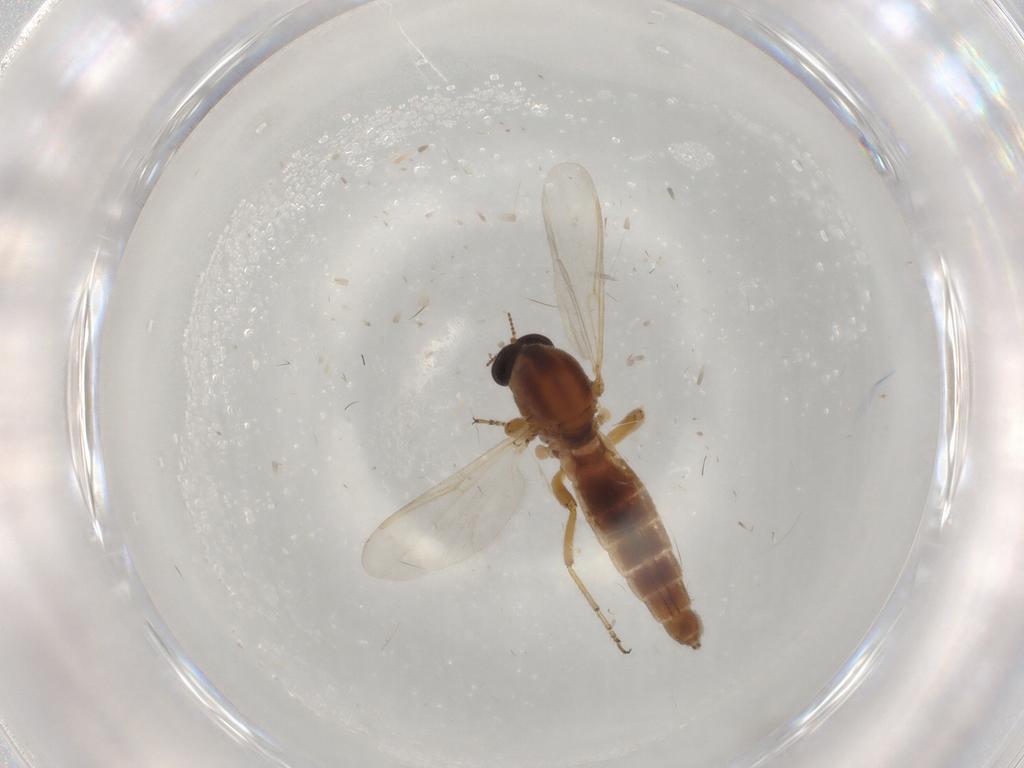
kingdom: Animalia
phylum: Arthropoda
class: Insecta
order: Diptera
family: Ceratopogonidae
